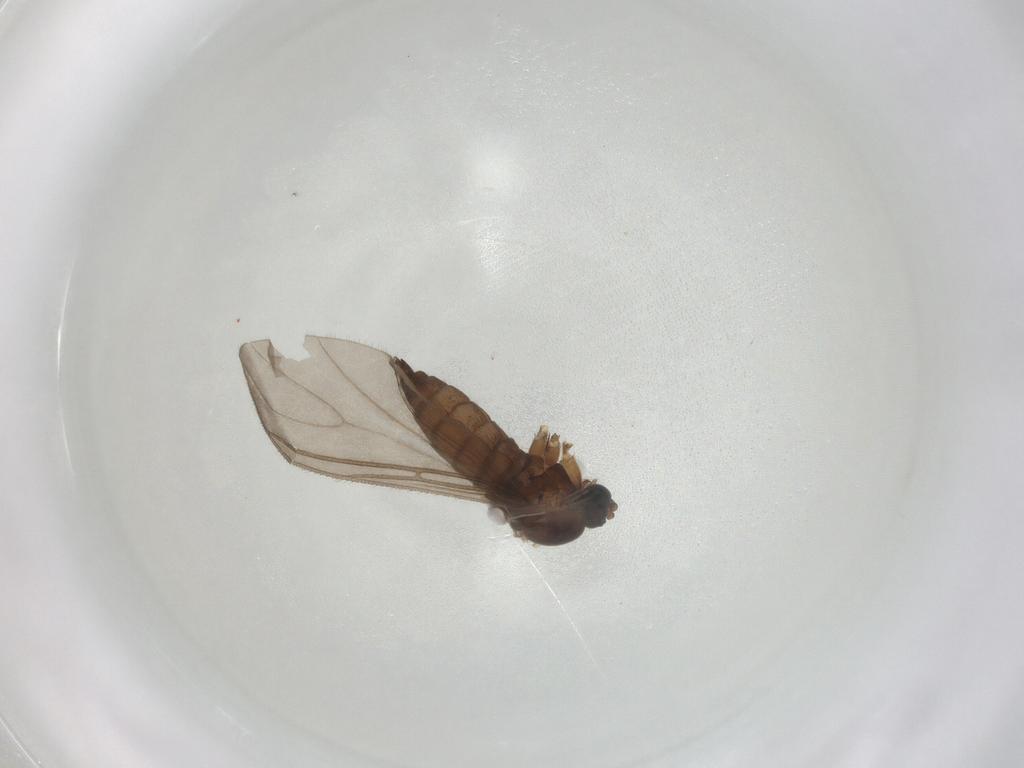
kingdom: Animalia
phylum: Arthropoda
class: Insecta
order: Diptera
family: Sciaridae
